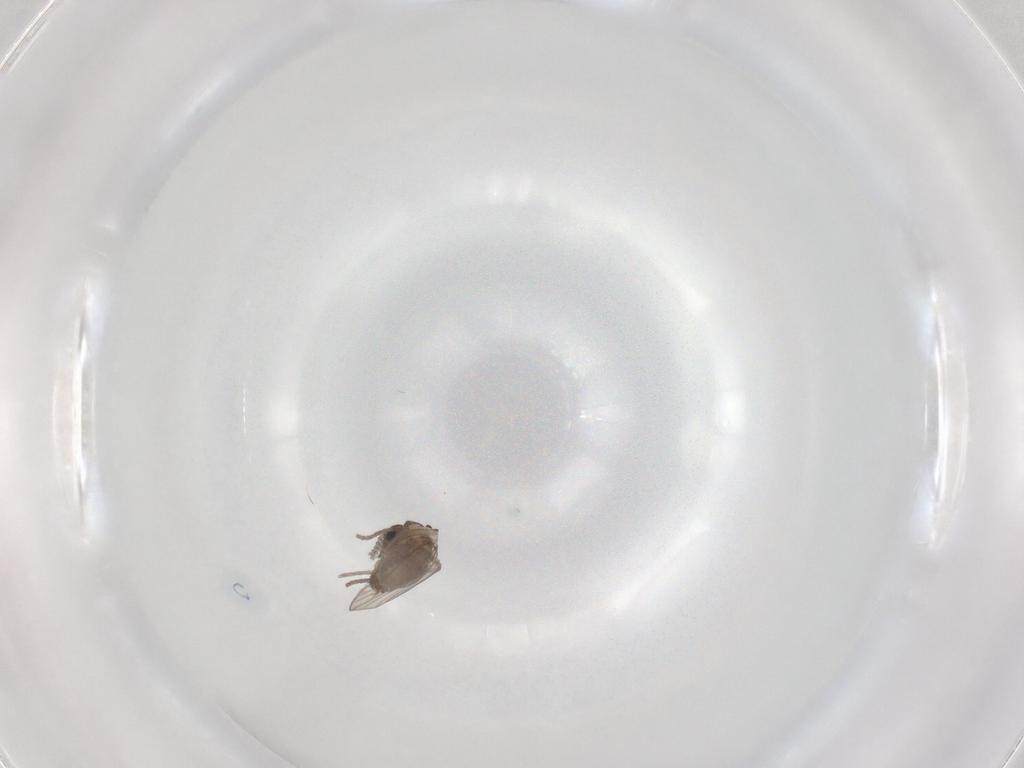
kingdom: Animalia
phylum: Arthropoda
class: Insecta
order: Diptera
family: Psychodidae
